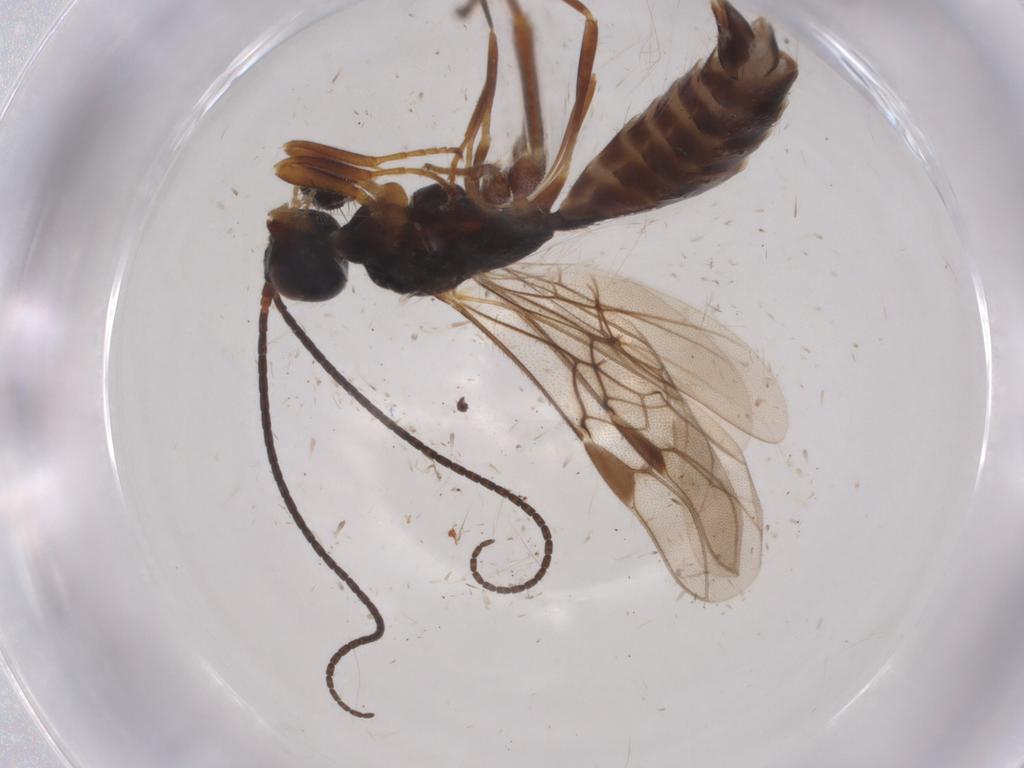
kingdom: Animalia
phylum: Arthropoda
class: Insecta
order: Hymenoptera
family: Braconidae
